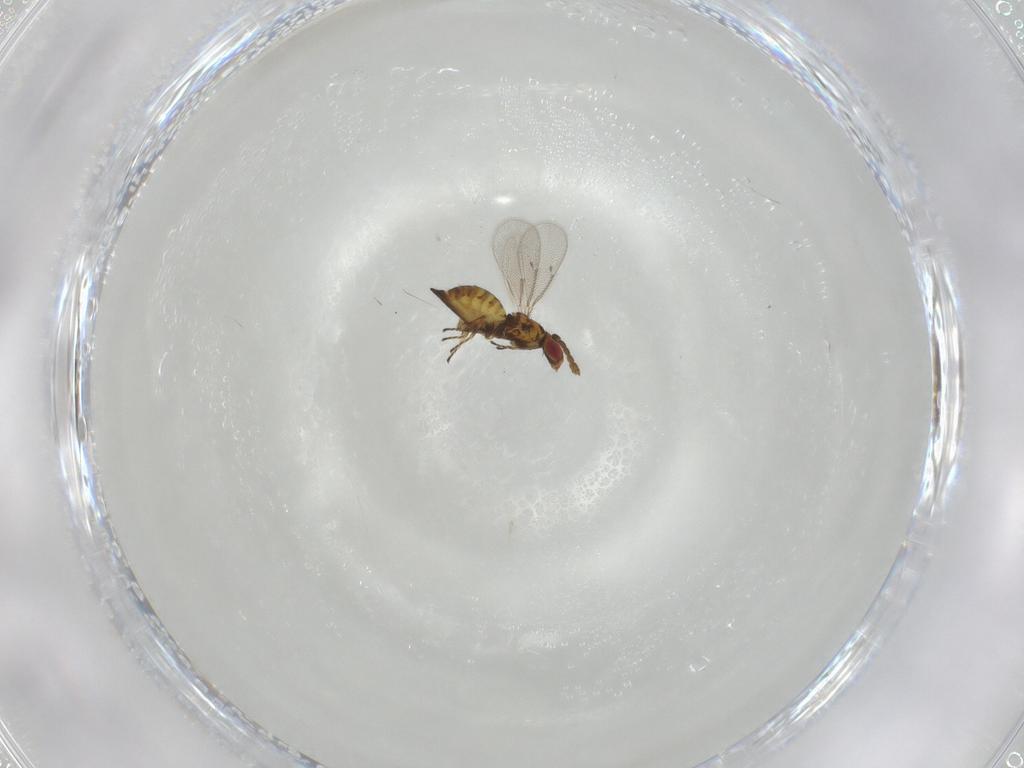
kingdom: Animalia
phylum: Arthropoda
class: Insecta
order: Hymenoptera
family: Eulophidae
